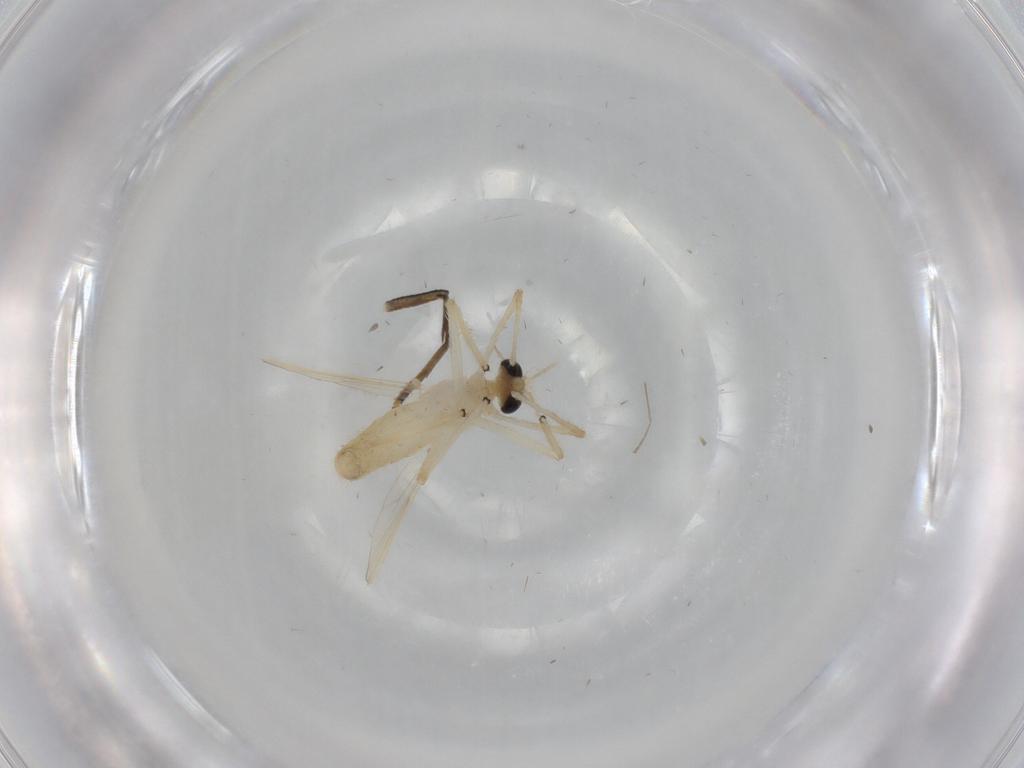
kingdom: Animalia
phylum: Arthropoda
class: Insecta
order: Diptera
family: Chironomidae
